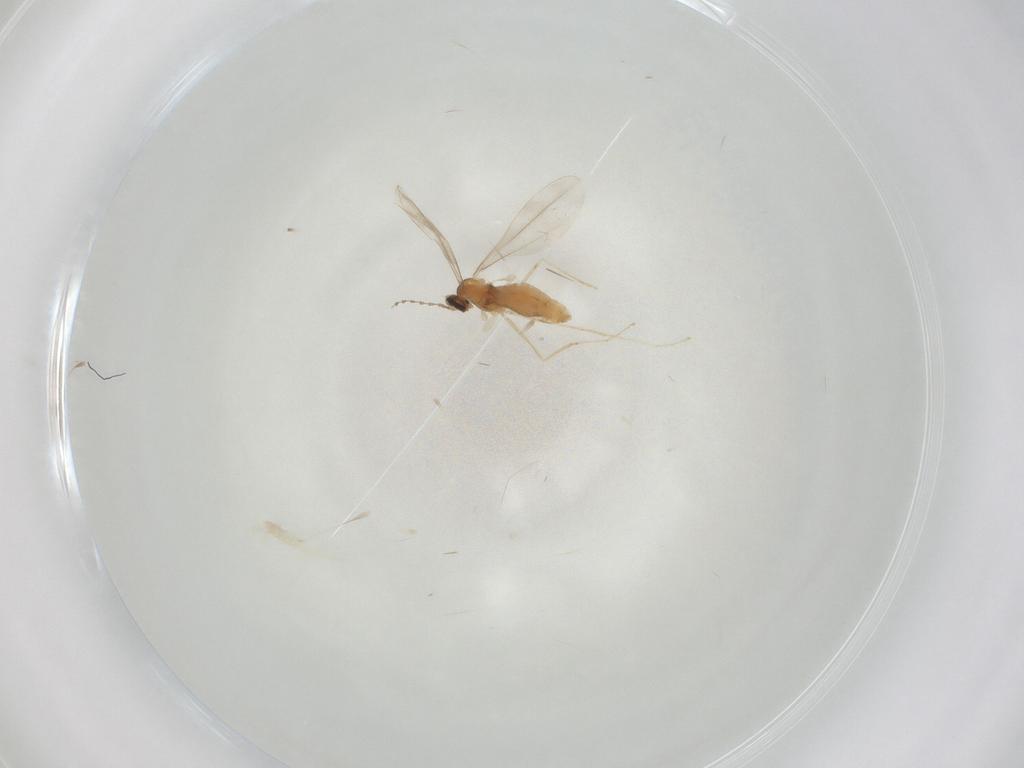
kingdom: Animalia
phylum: Arthropoda
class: Insecta
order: Diptera
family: Cecidomyiidae
